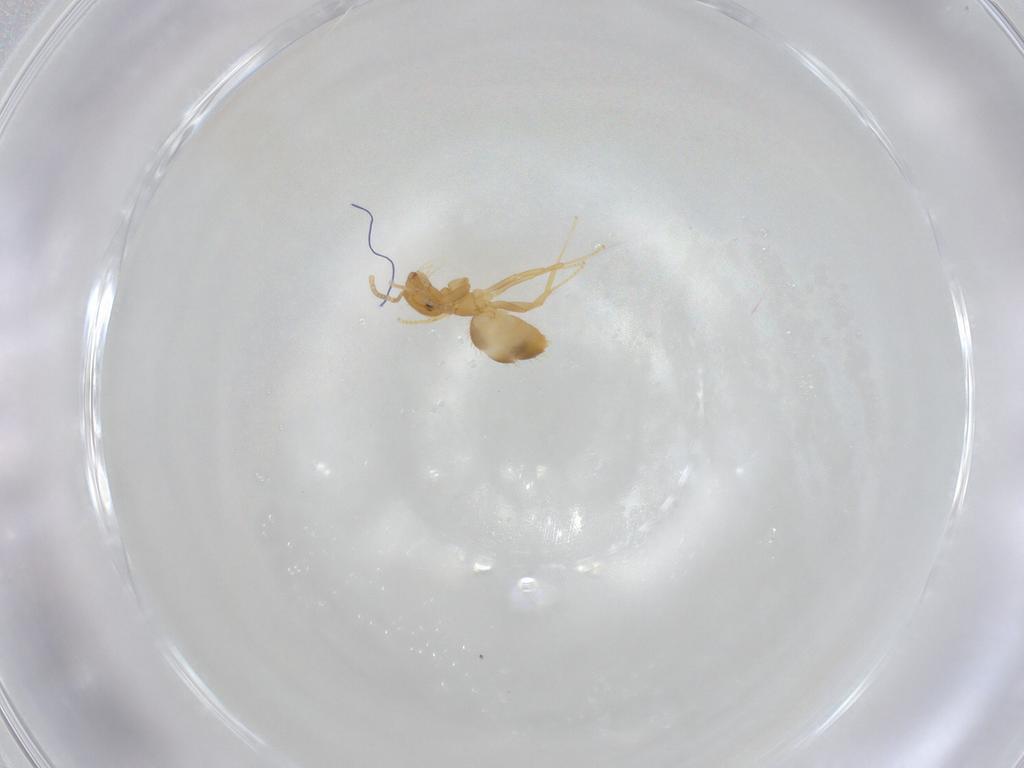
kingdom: Animalia
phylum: Arthropoda
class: Insecta
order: Hymenoptera
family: Formicidae
